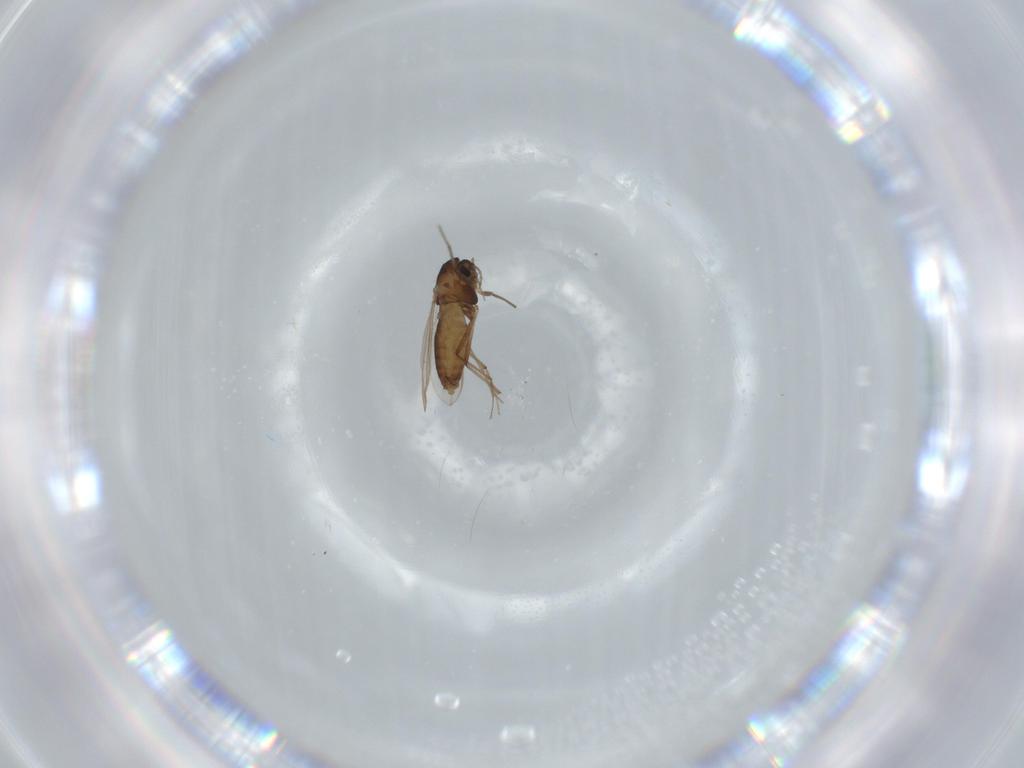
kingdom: Animalia
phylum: Arthropoda
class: Insecta
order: Diptera
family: Chironomidae
